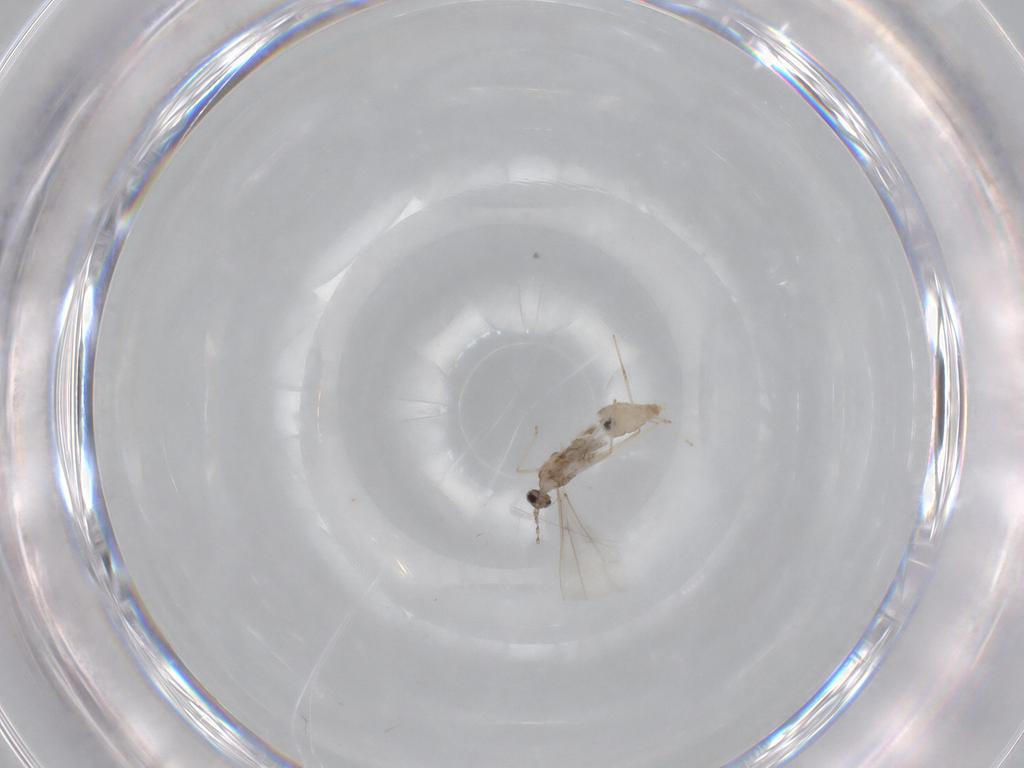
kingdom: Animalia
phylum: Arthropoda
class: Insecta
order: Diptera
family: Cecidomyiidae
